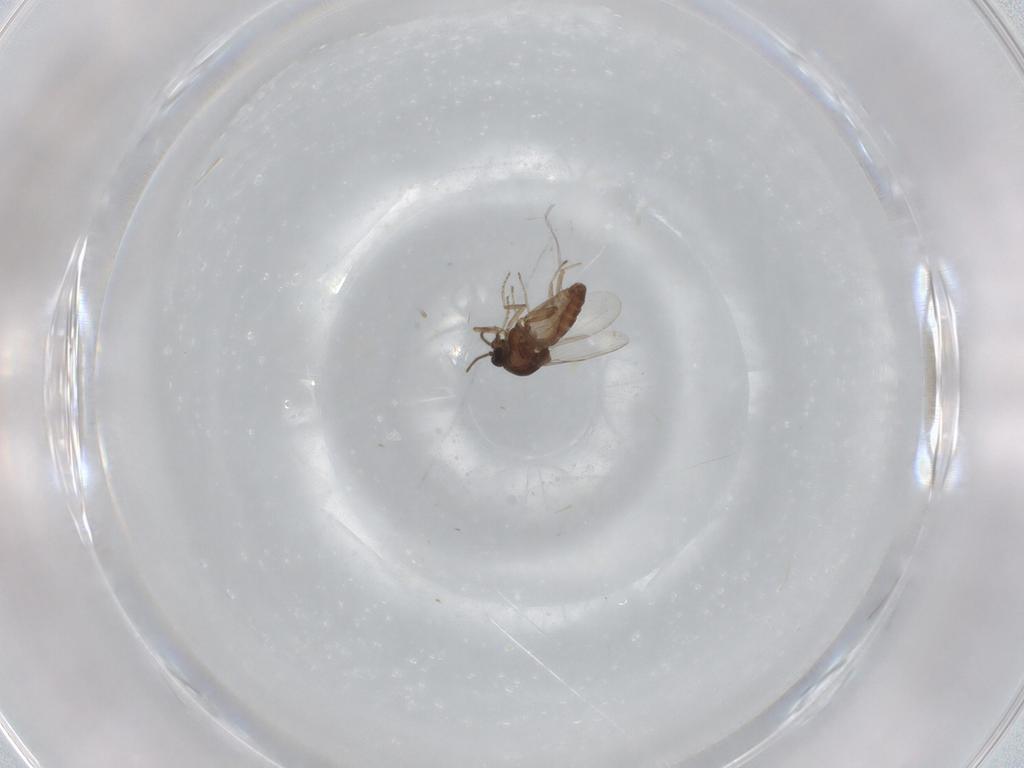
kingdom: Animalia
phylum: Arthropoda
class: Insecta
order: Diptera
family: Ceratopogonidae
